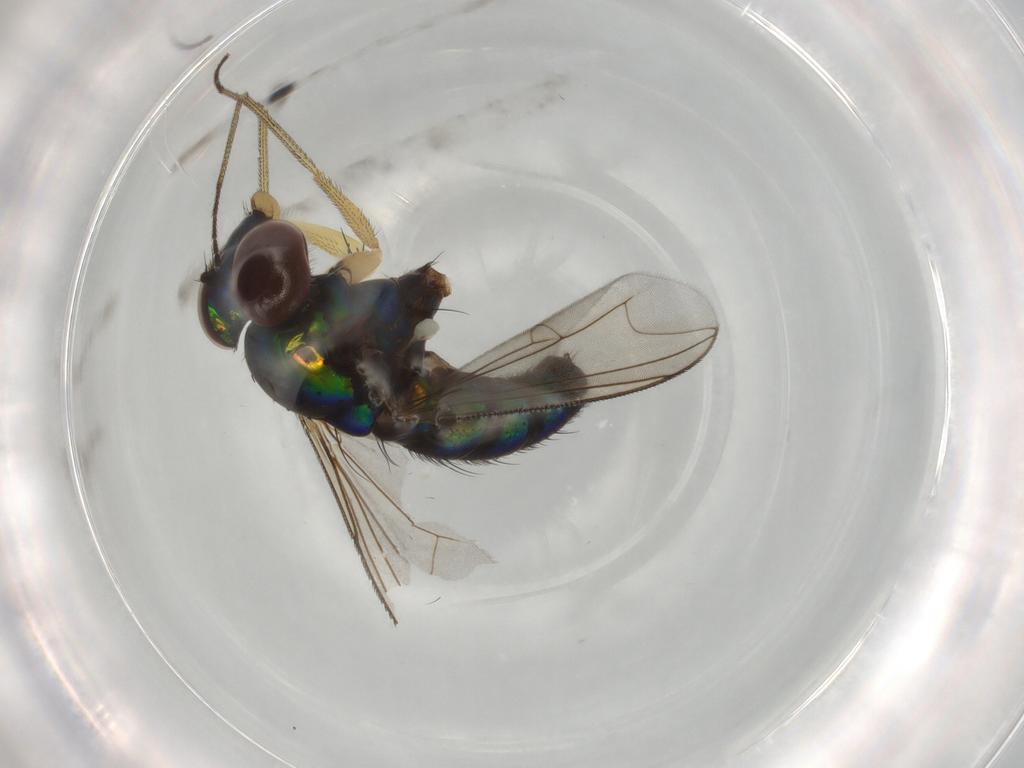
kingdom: Animalia
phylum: Arthropoda
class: Insecta
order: Diptera
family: Dolichopodidae
